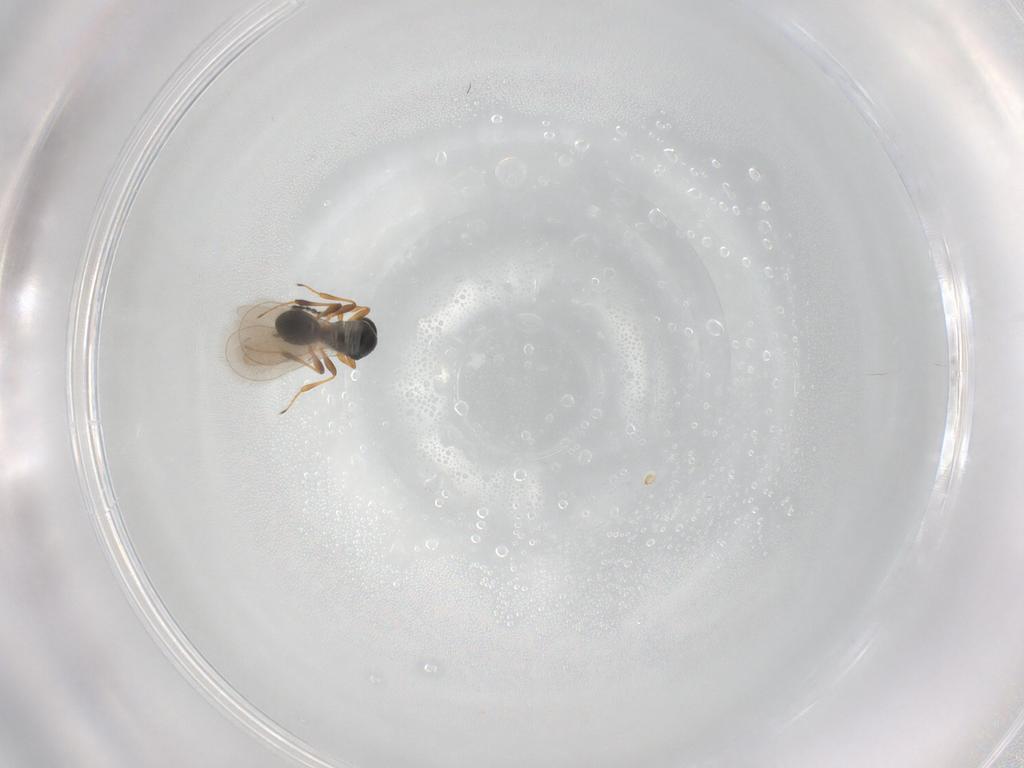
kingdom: Animalia
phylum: Arthropoda
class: Insecta
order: Hymenoptera
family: Platygastridae
